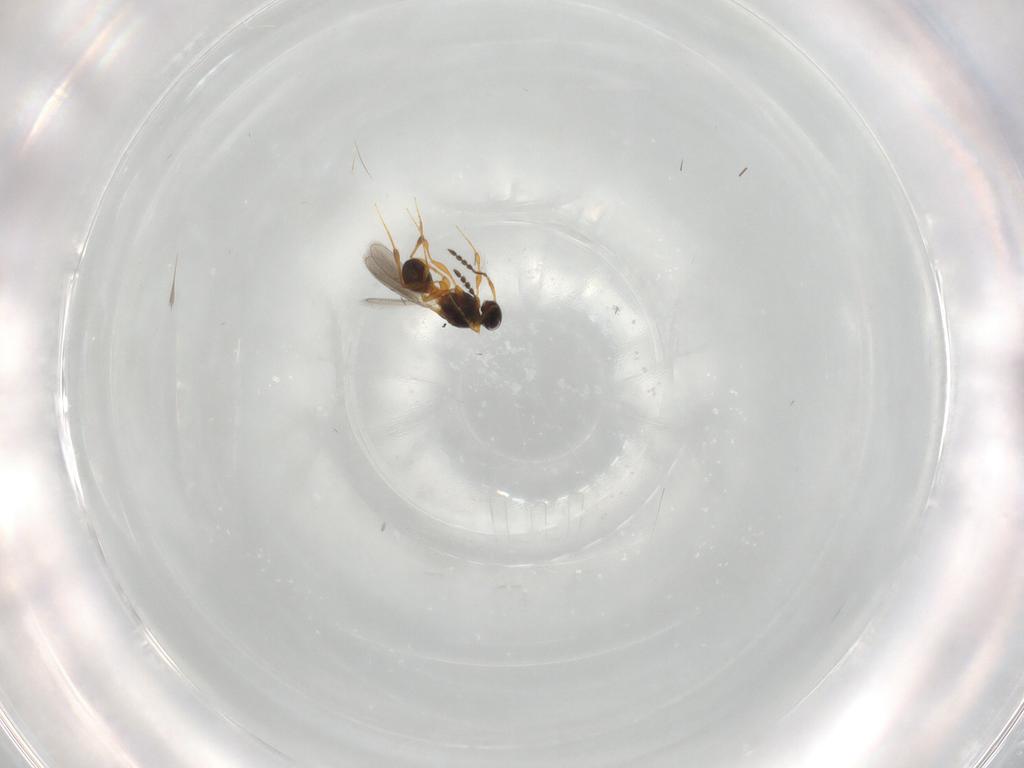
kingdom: Animalia
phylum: Arthropoda
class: Insecta
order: Hymenoptera
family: Platygastridae
